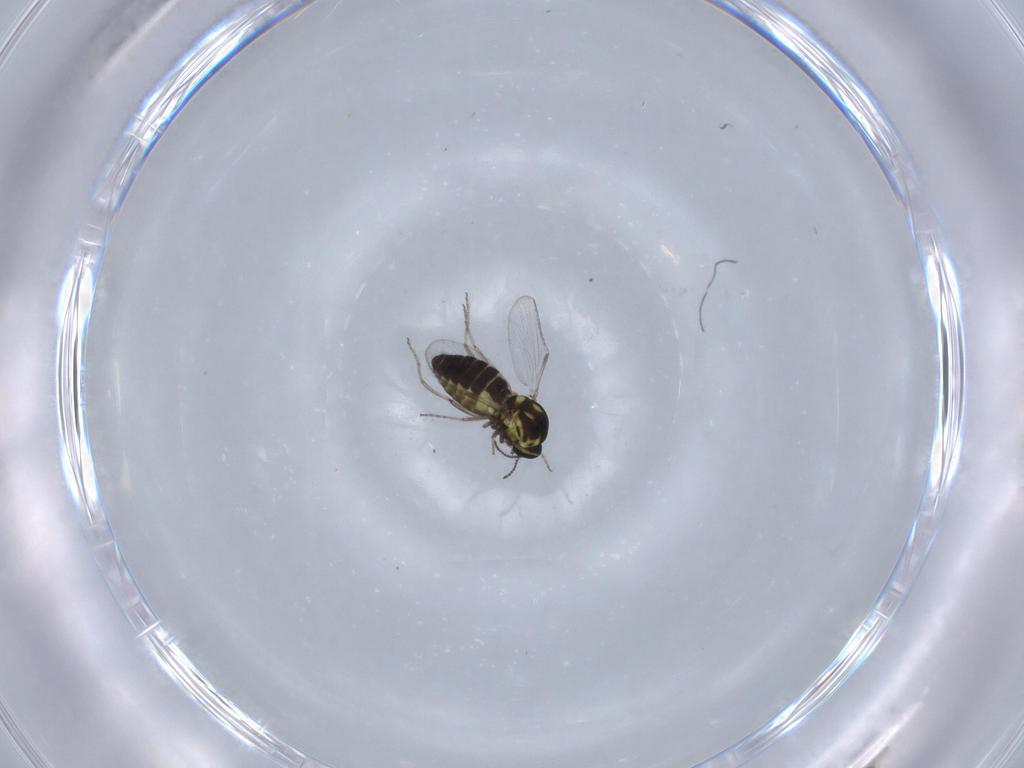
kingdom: Animalia
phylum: Arthropoda
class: Insecta
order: Diptera
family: Ceratopogonidae
